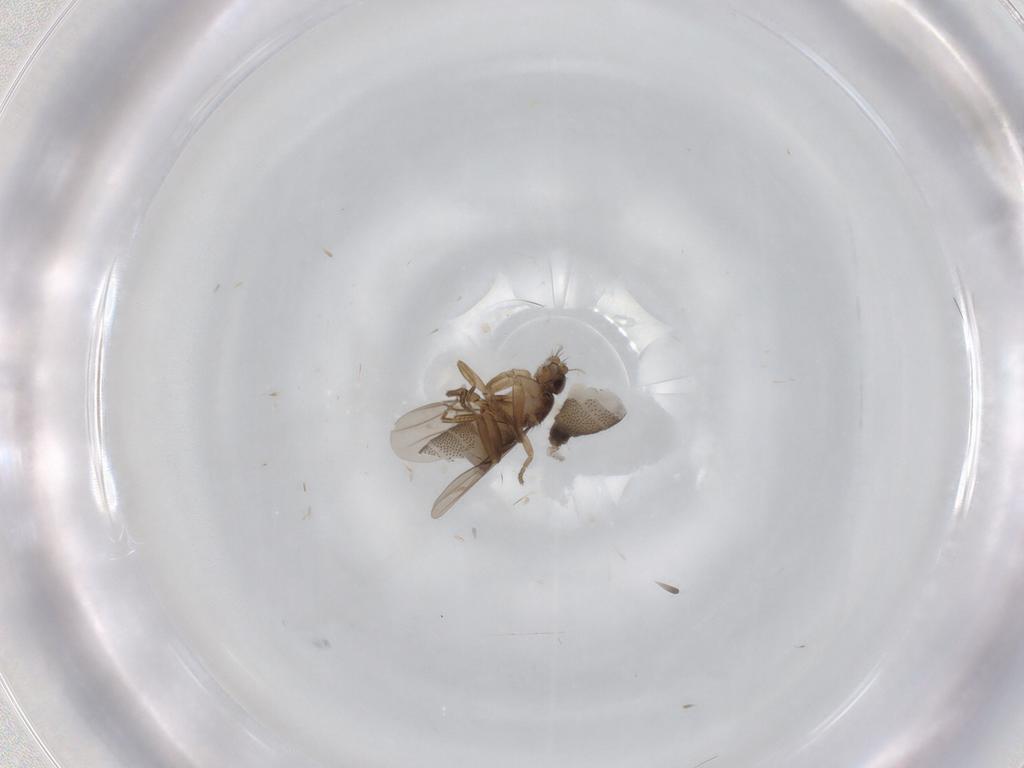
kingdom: Animalia
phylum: Arthropoda
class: Insecta
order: Diptera
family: Phoridae
